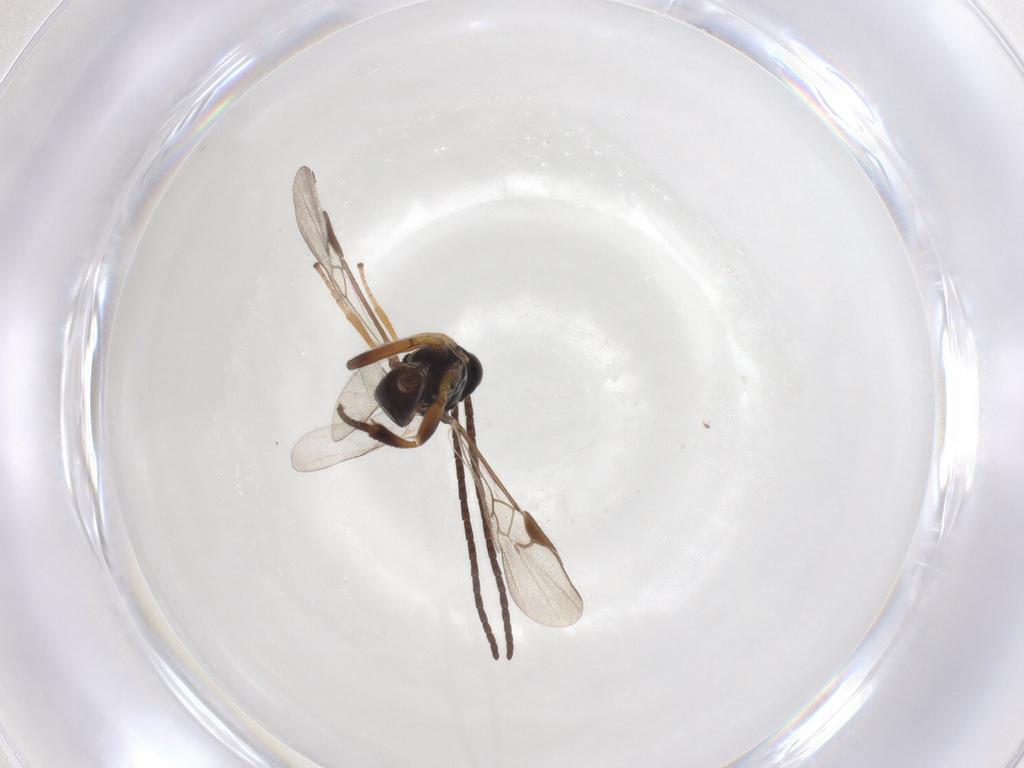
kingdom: Animalia
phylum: Arthropoda
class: Insecta
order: Hymenoptera
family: Braconidae
